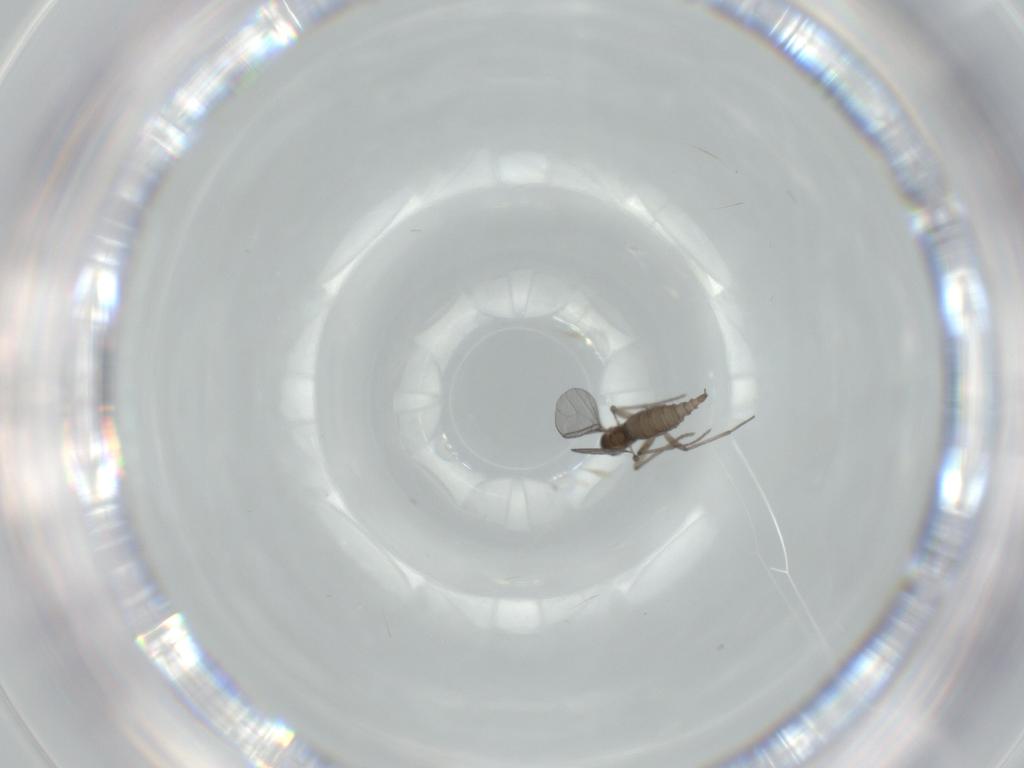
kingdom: Animalia
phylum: Arthropoda
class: Insecta
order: Diptera
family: Sciaridae
